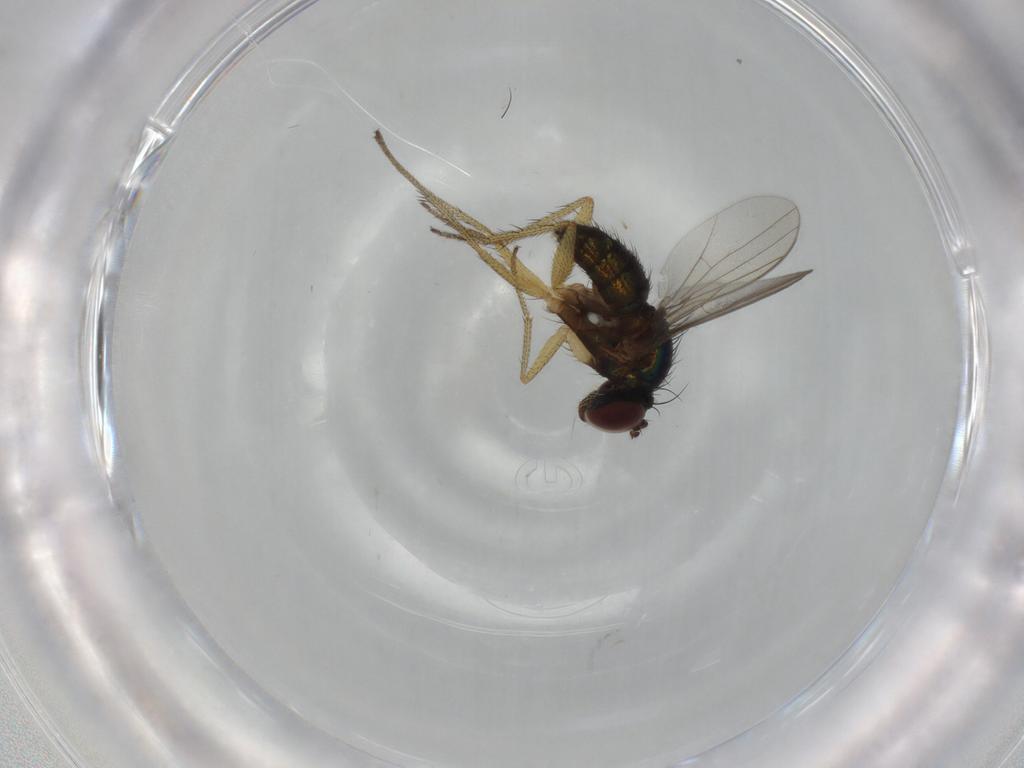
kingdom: Animalia
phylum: Arthropoda
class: Insecta
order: Diptera
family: Dolichopodidae
